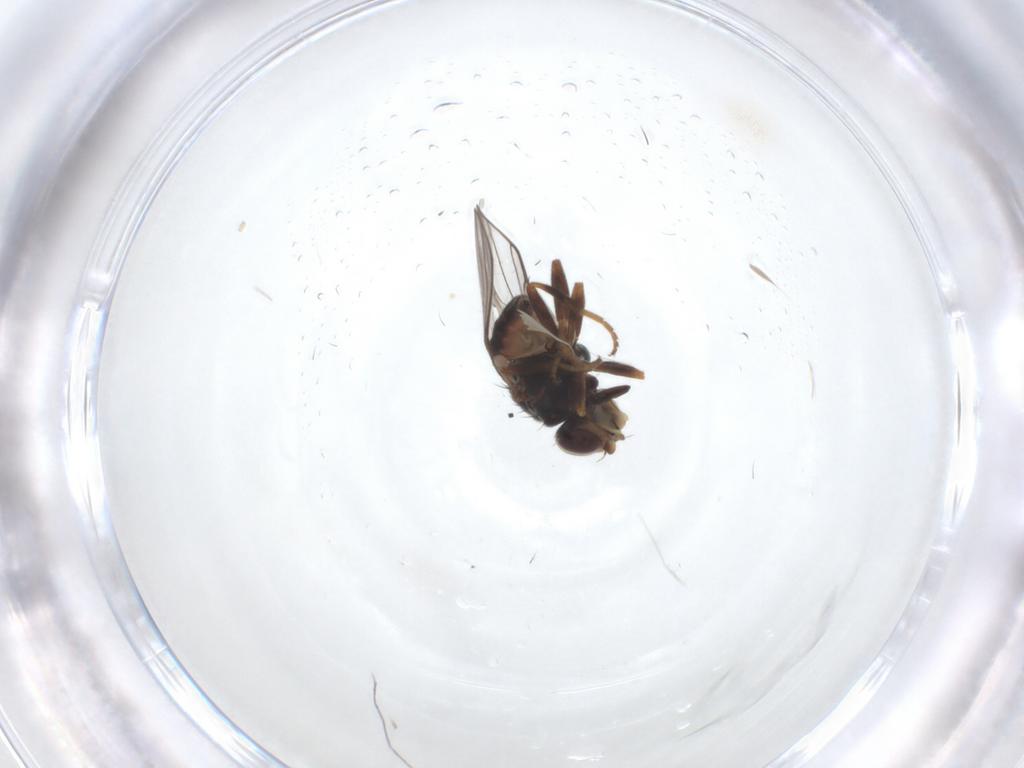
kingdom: Animalia
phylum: Arthropoda
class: Insecta
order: Diptera
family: Chloropidae
